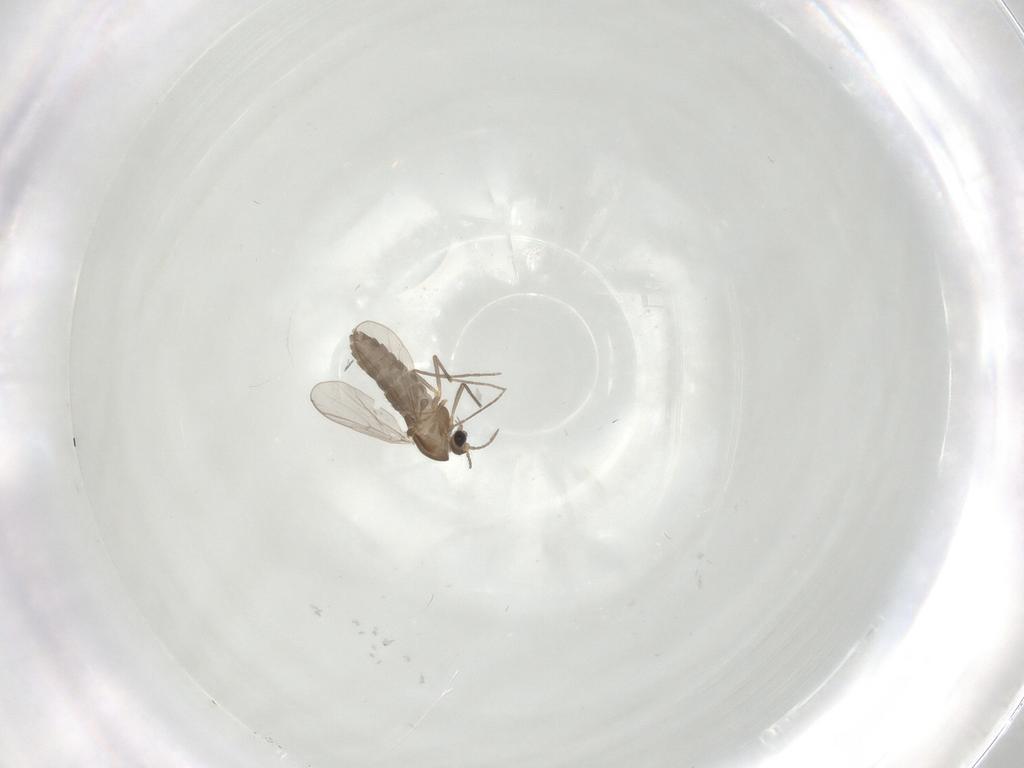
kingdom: Animalia
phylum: Arthropoda
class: Insecta
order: Diptera
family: Chironomidae
